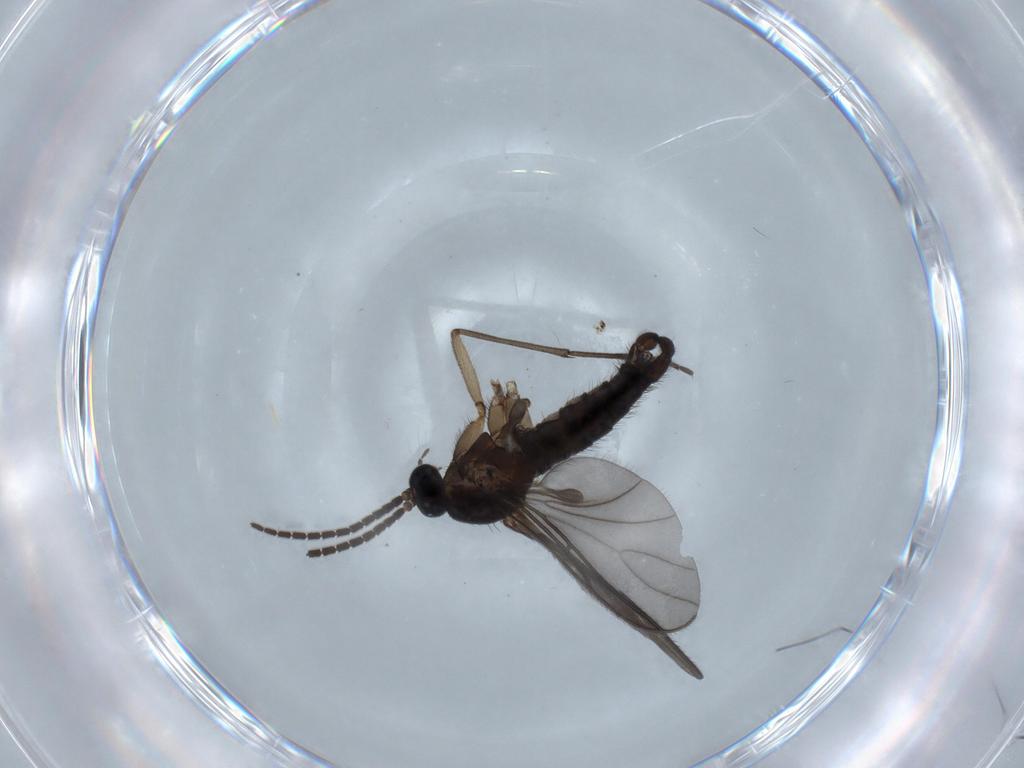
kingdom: Animalia
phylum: Arthropoda
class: Insecta
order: Diptera
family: Sciaridae
